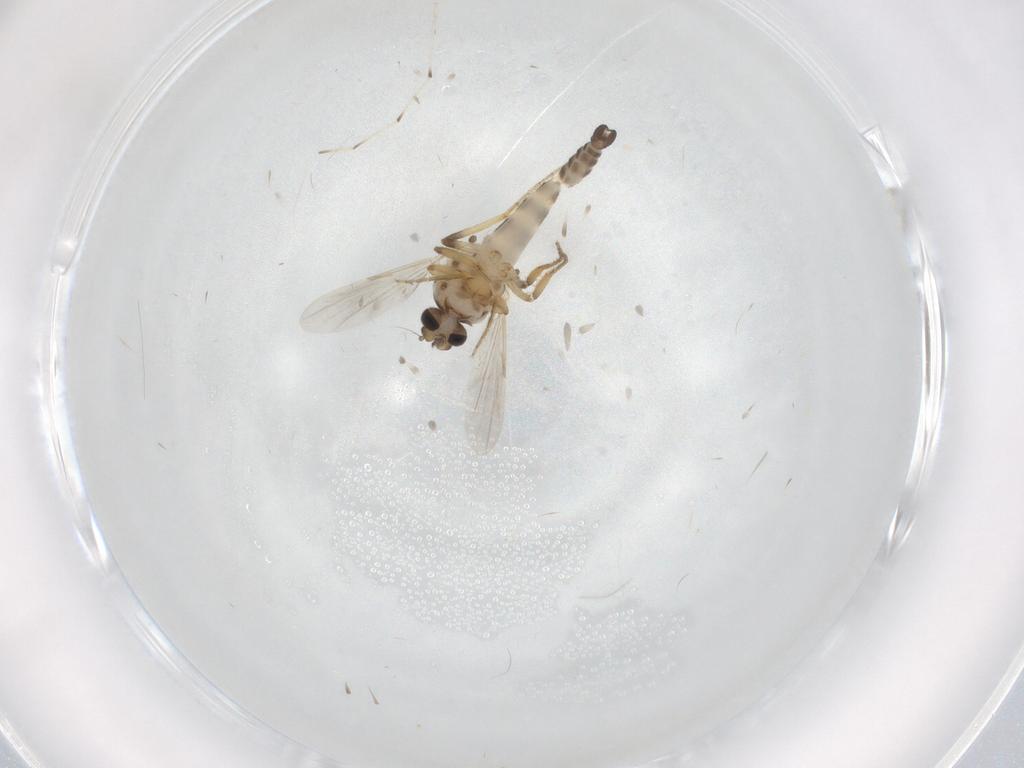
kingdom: Animalia
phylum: Arthropoda
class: Insecta
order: Diptera
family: Ceratopogonidae
